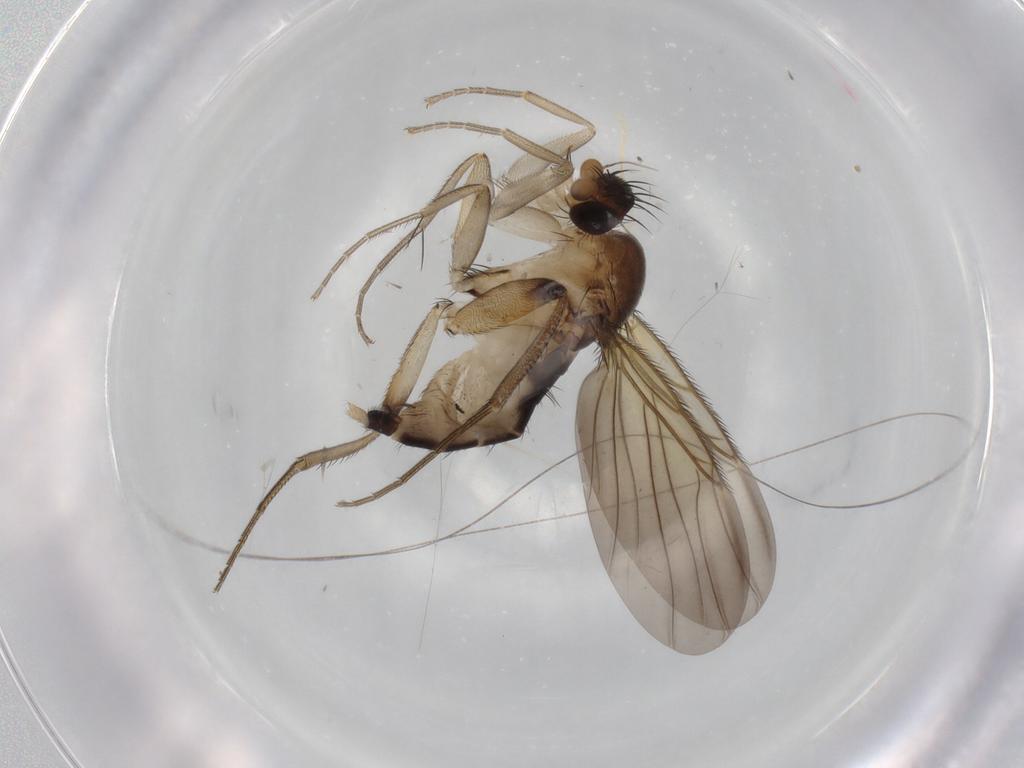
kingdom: Animalia
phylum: Arthropoda
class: Insecta
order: Diptera
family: Phoridae
